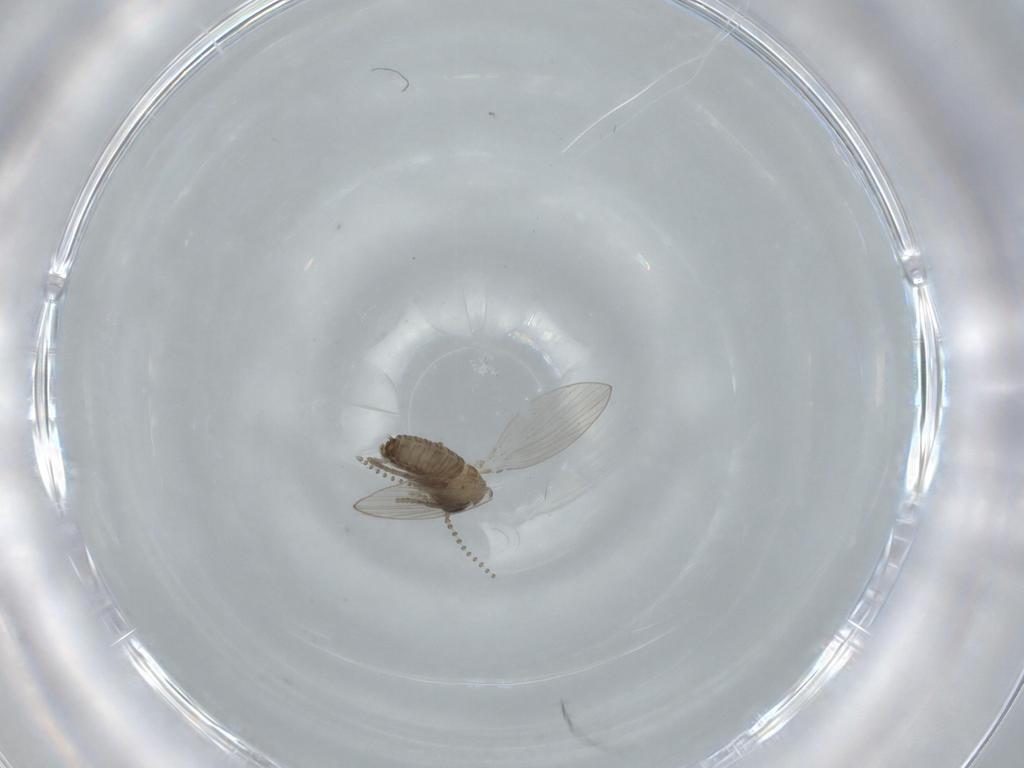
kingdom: Animalia
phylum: Arthropoda
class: Insecta
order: Diptera
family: Psychodidae
